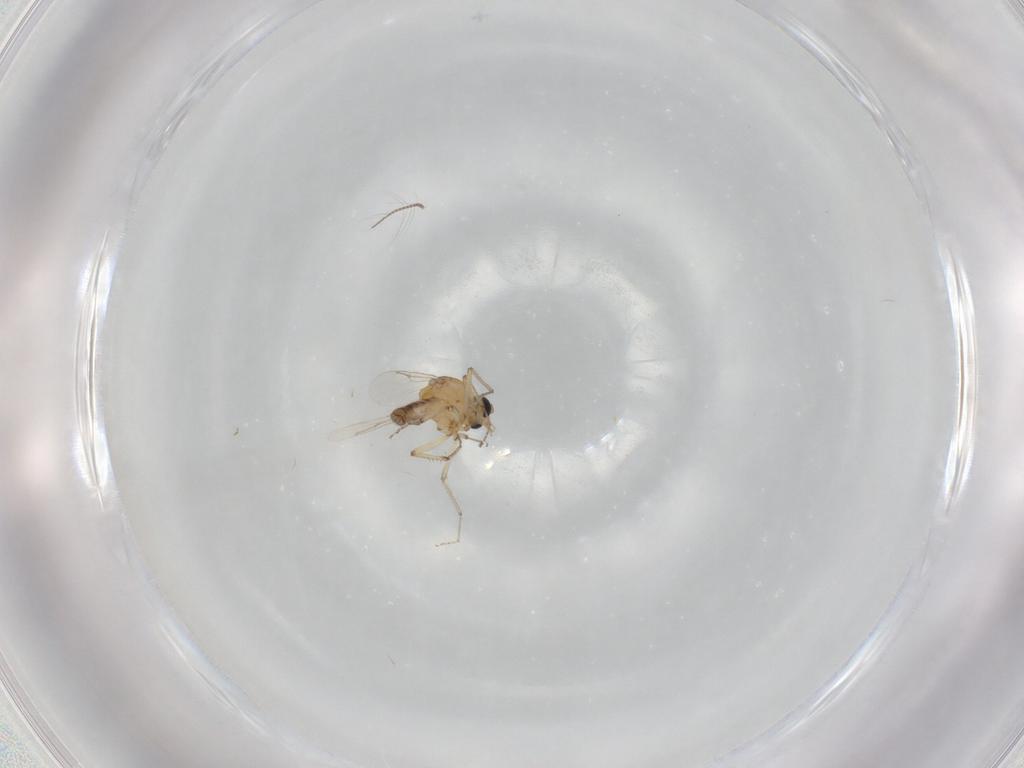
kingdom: Animalia
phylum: Arthropoda
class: Insecta
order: Diptera
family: Ceratopogonidae
